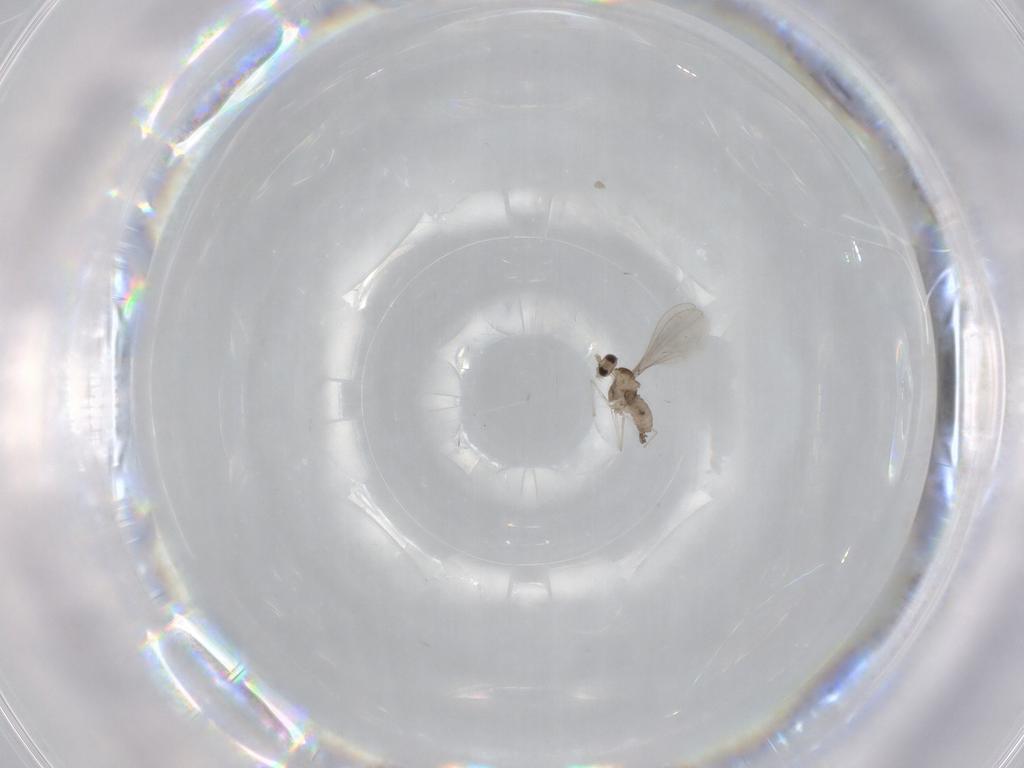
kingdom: Animalia
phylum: Arthropoda
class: Insecta
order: Diptera
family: Cecidomyiidae
